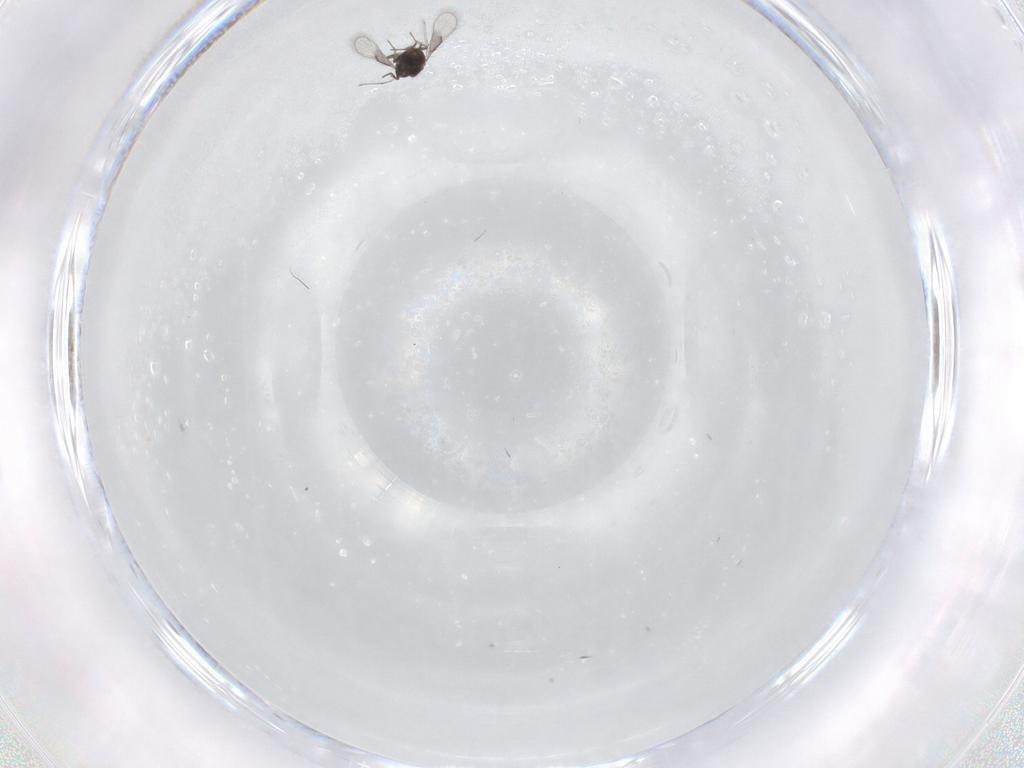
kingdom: Animalia
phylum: Arthropoda
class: Insecta
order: Hymenoptera
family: Trichogrammatidae
